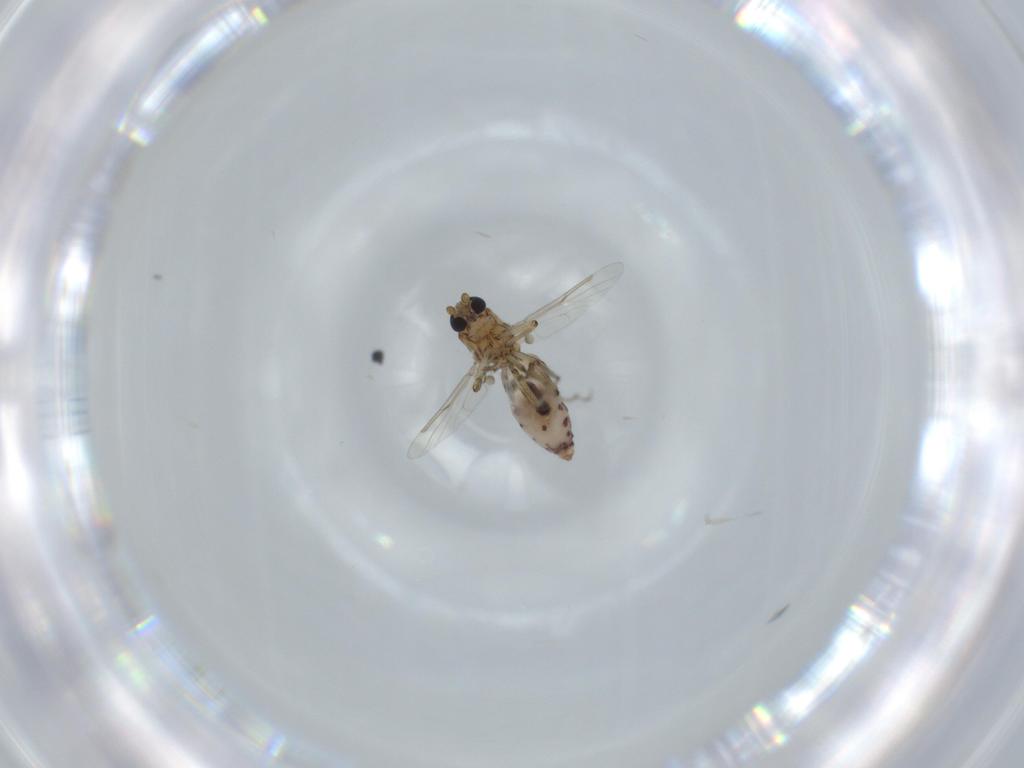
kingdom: Animalia
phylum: Arthropoda
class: Insecta
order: Diptera
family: Ceratopogonidae
